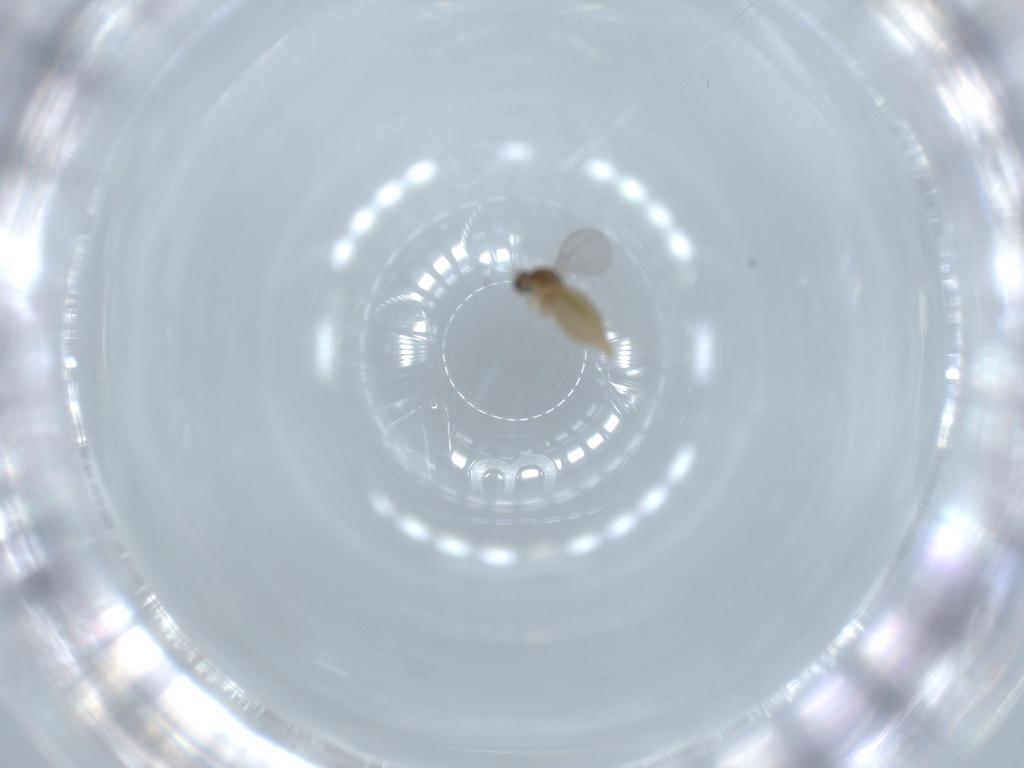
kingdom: Animalia
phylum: Arthropoda
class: Insecta
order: Diptera
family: Cecidomyiidae
